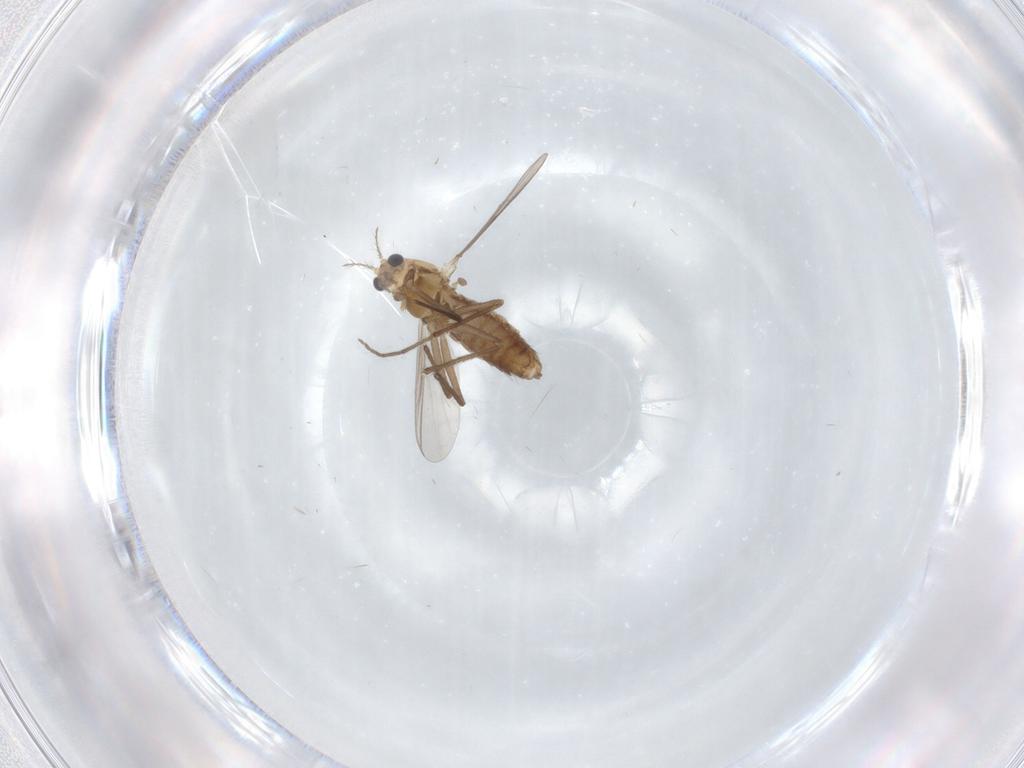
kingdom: Animalia
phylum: Arthropoda
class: Insecta
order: Diptera
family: Chironomidae
